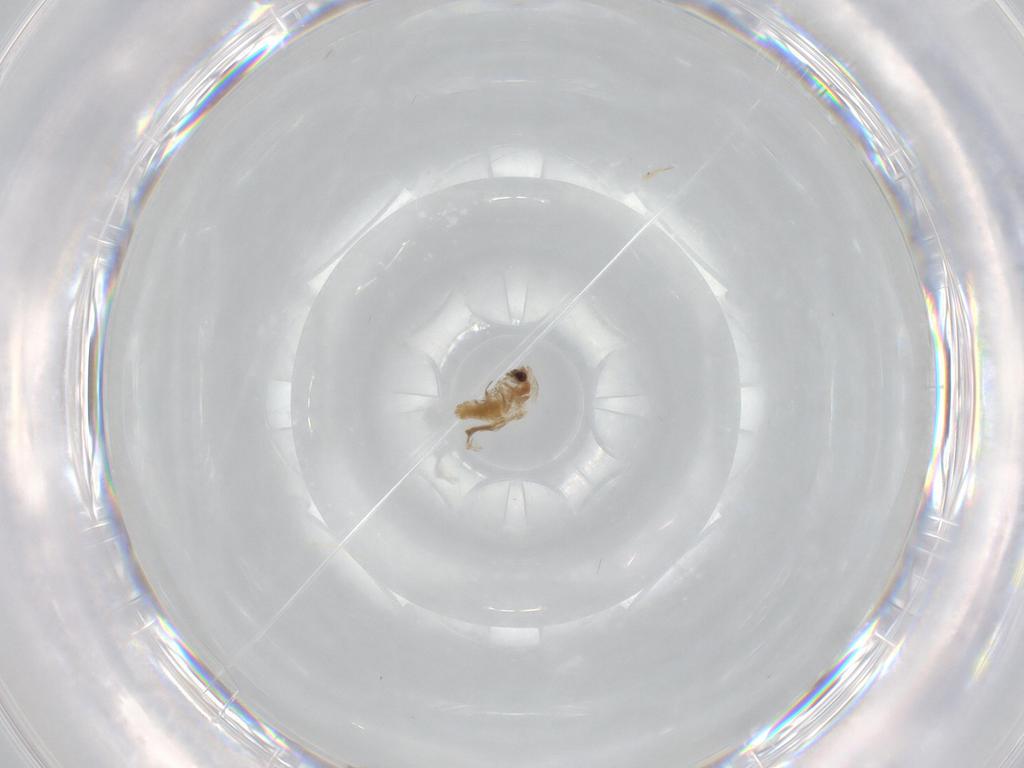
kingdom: Animalia
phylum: Arthropoda
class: Insecta
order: Diptera
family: Chironomidae
